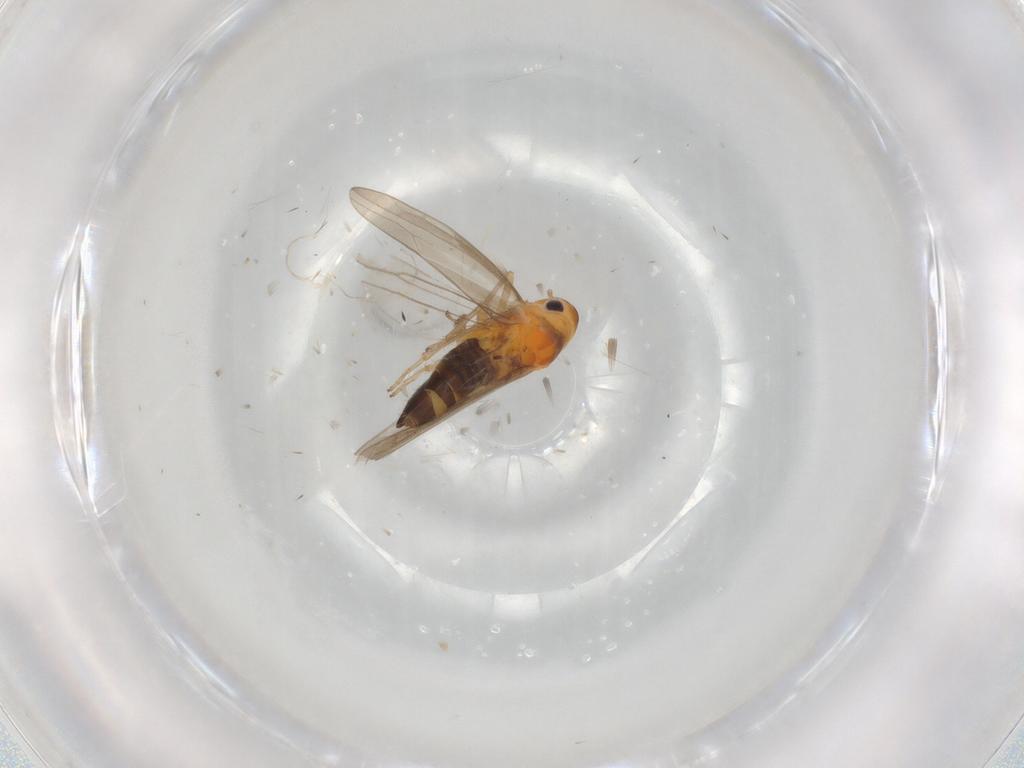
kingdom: Animalia
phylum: Arthropoda
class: Insecta
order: Hemiptera
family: Cicadellidae
